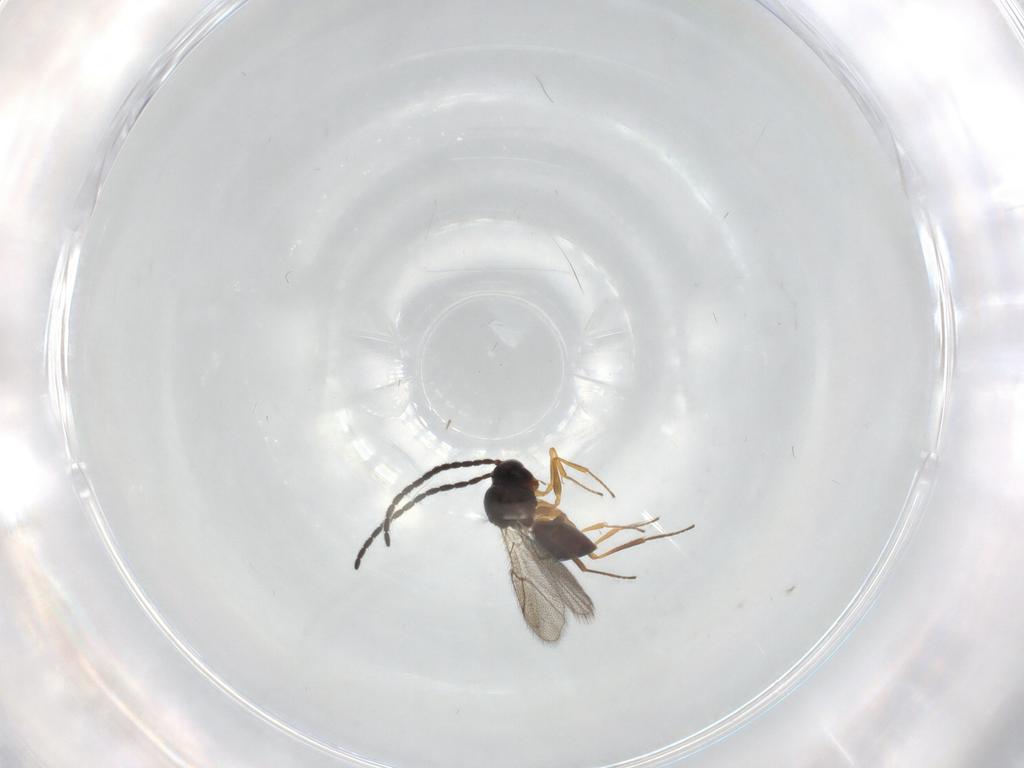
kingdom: Animalia
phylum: Arthropoda
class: Insecta
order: Hymenoptera
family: Figitidae
